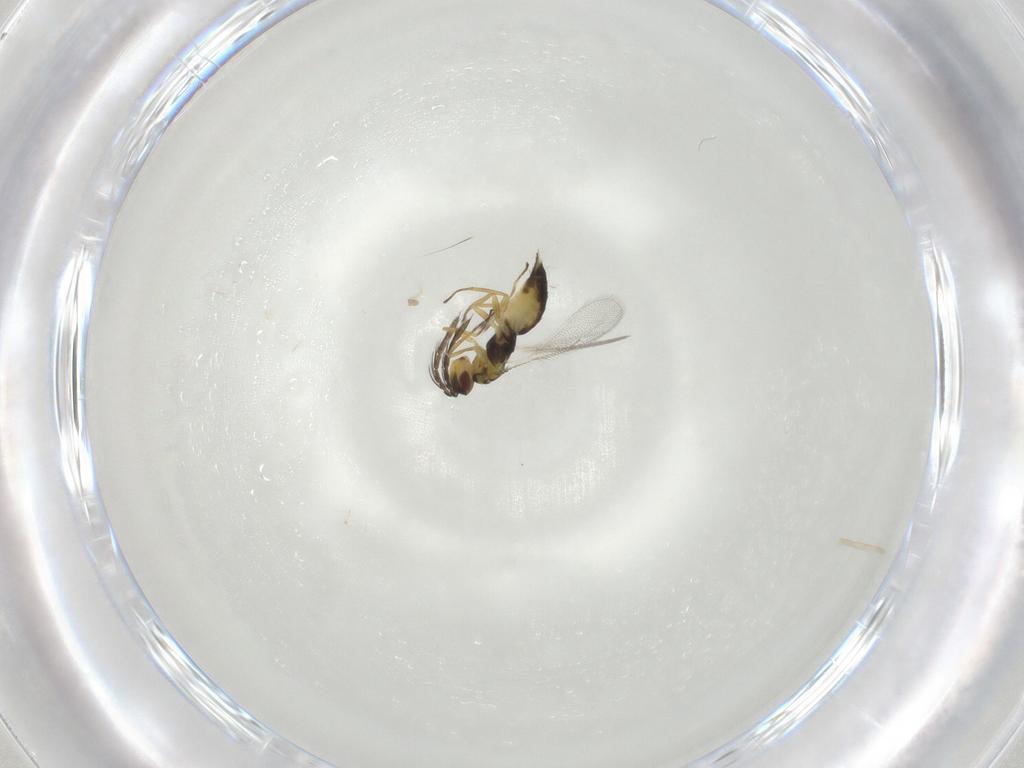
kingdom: Animalia
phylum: Arthropoda
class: Insecta
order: Hymenoptera
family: Eulophidae
